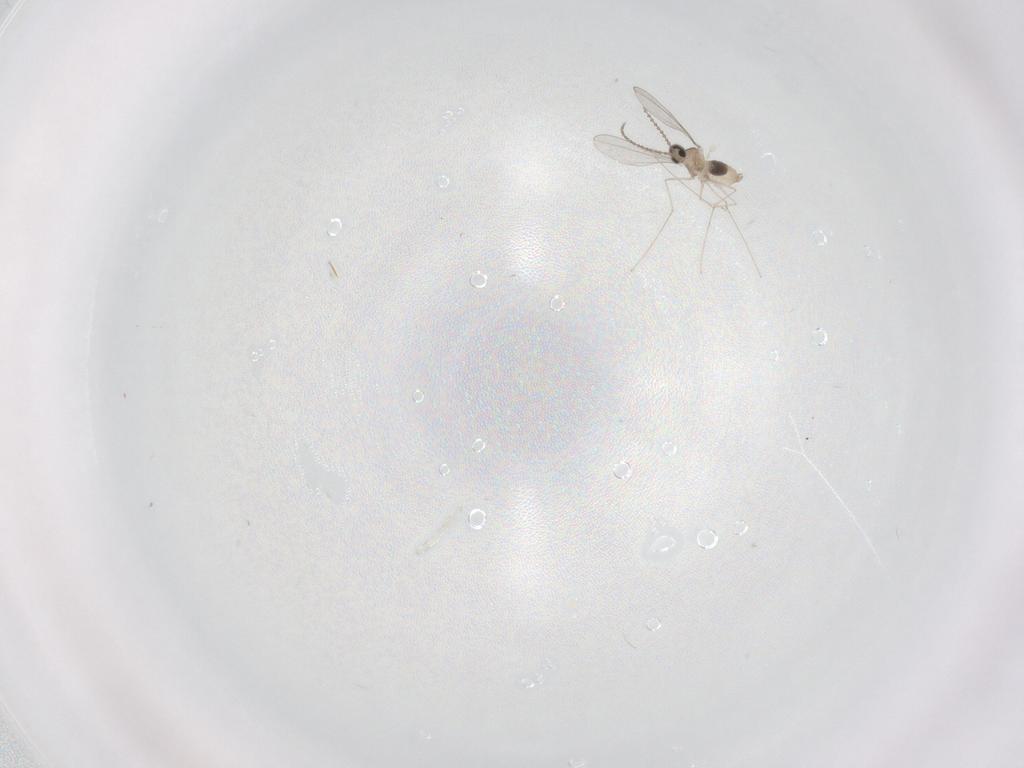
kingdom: Animalia
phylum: Arthropoda
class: Insecta
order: Diptera
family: Cecidomyiidae
